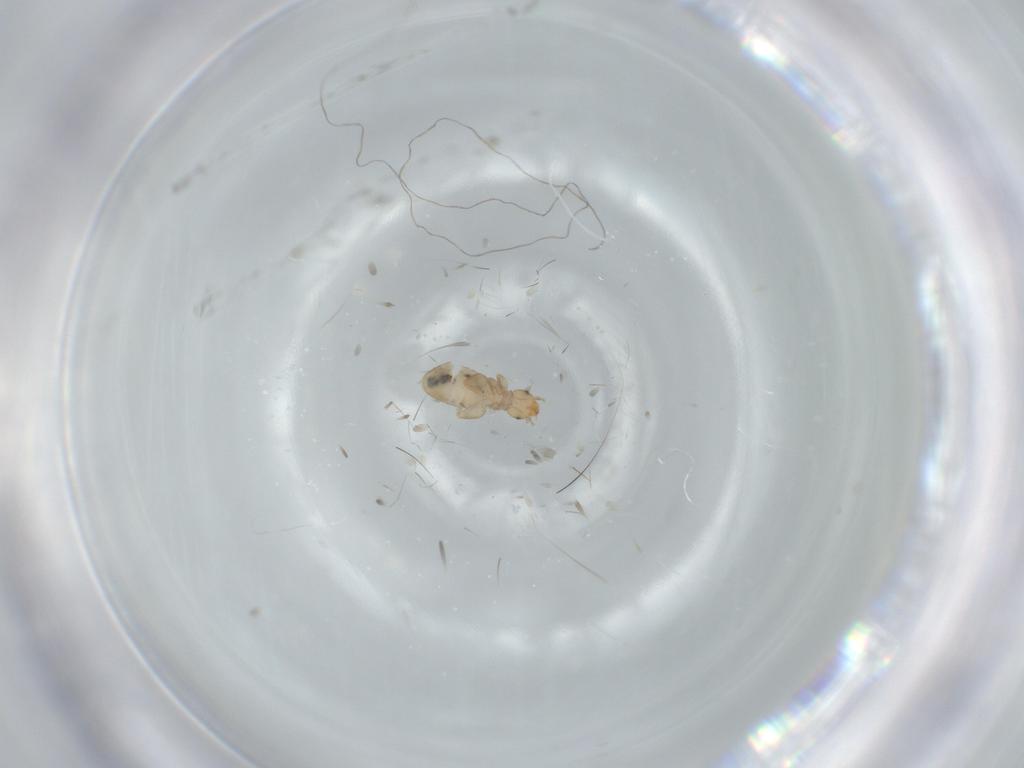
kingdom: Animalia
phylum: Arthropoda
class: Insecta
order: Psocodea
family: Liposcelididae
